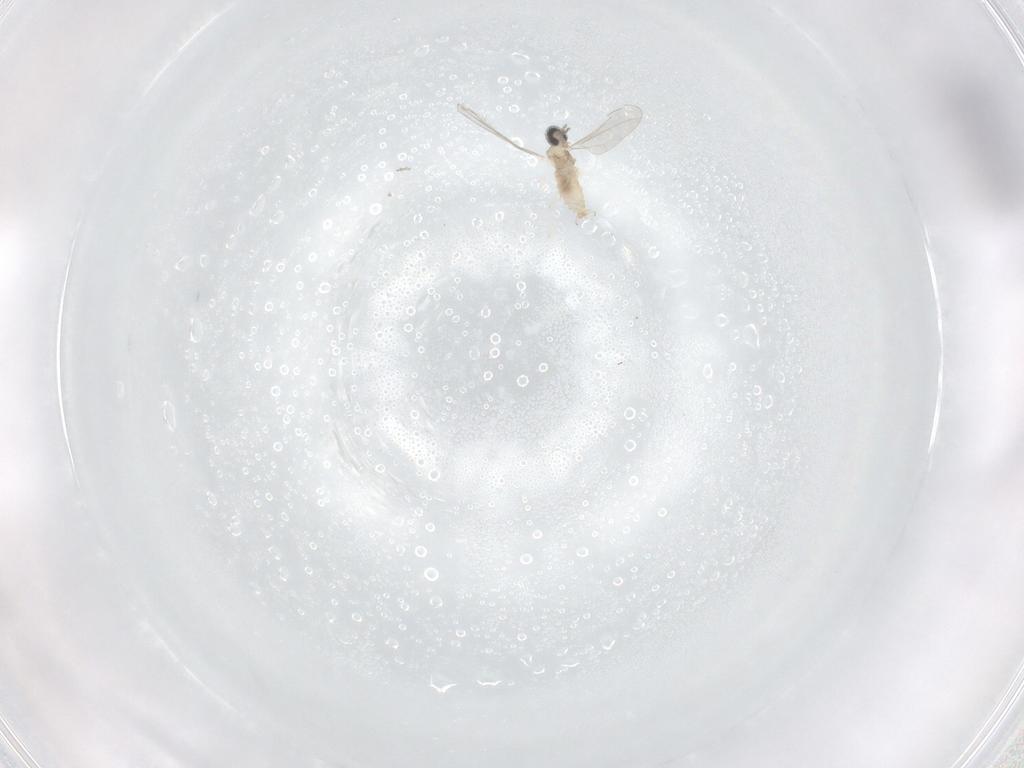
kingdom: Animalia
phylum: Arthropoda
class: Insecta
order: Diptera
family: Cecidomyiidae
